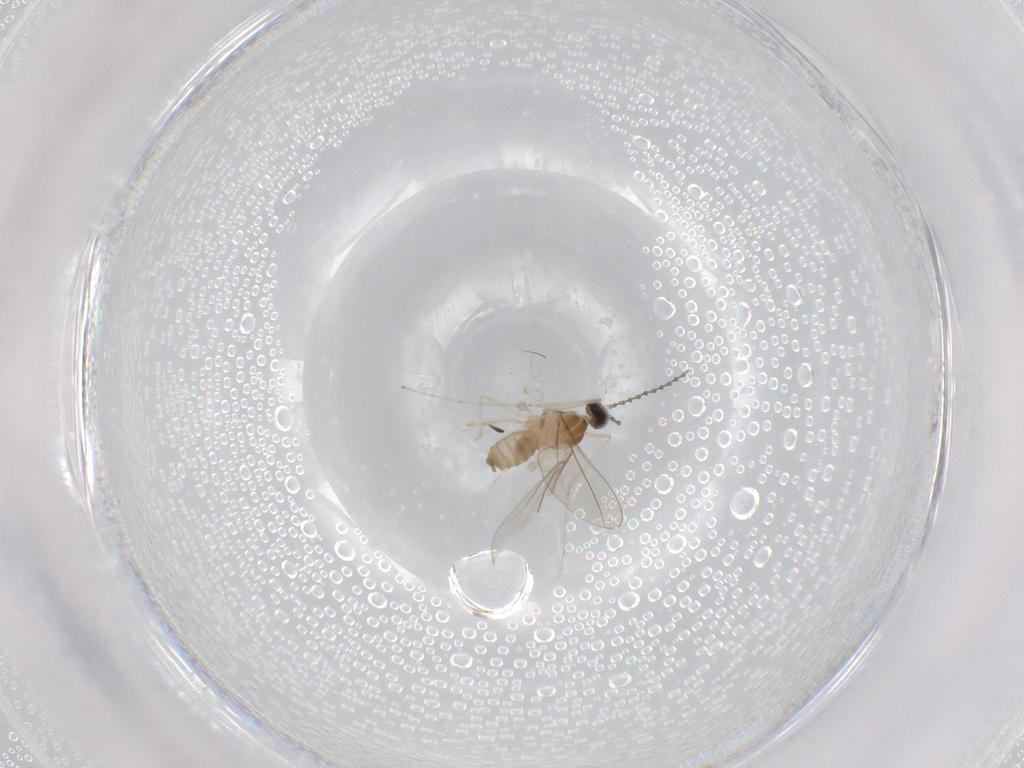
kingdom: Animalia
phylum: Arthropoda
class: Insecta
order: Diptera
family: Cecidomyiidae
